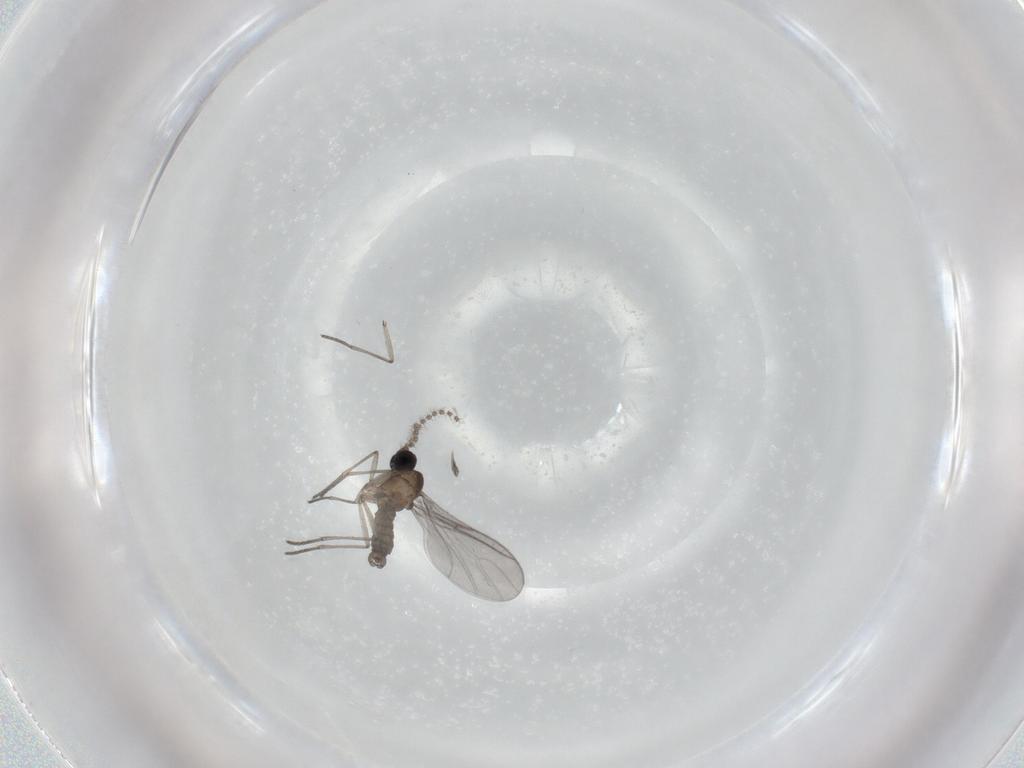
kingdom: Animalia
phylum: Arthropoda
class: Insecta
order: Diptera
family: Sciaridae
